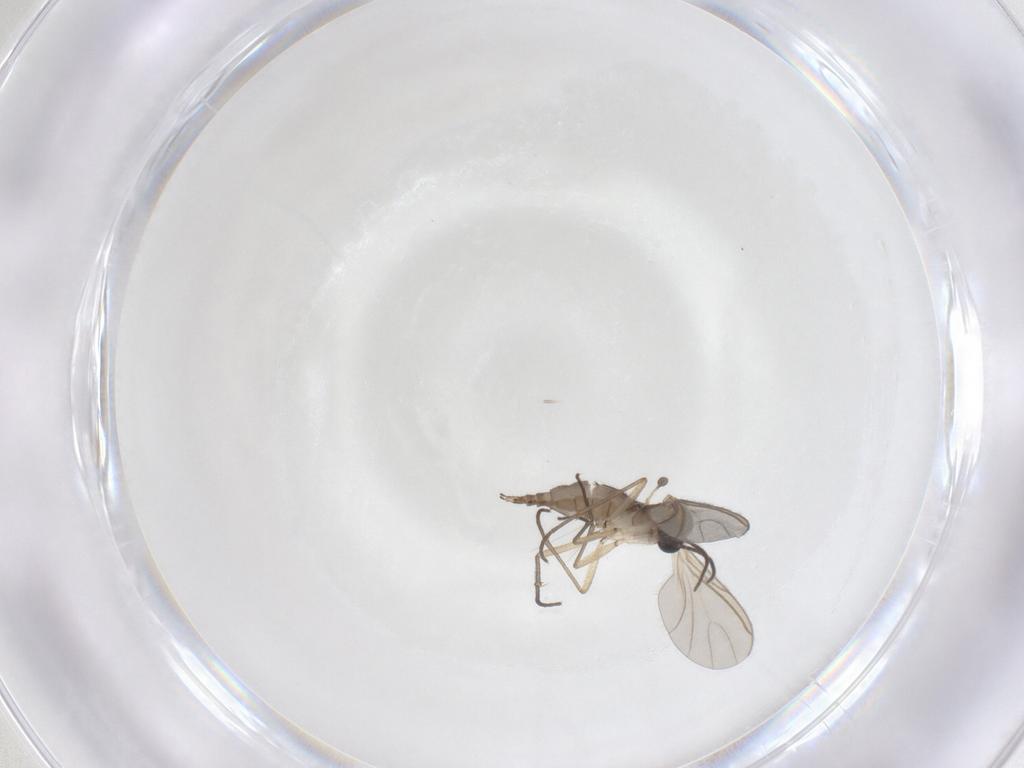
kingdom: Animalia
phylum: Arthropoda
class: Insecta
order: Diptera
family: Sciaridae
